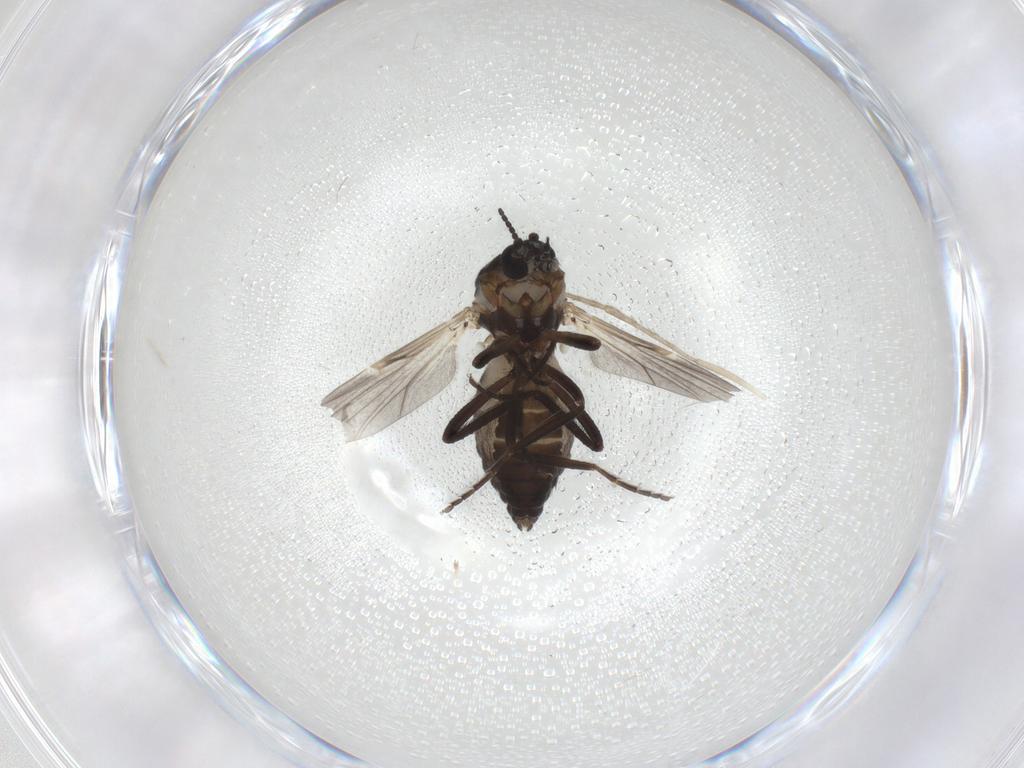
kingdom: Animalia
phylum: Arthropoda
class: Insecta
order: Diptera
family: Ceratopogonidae
